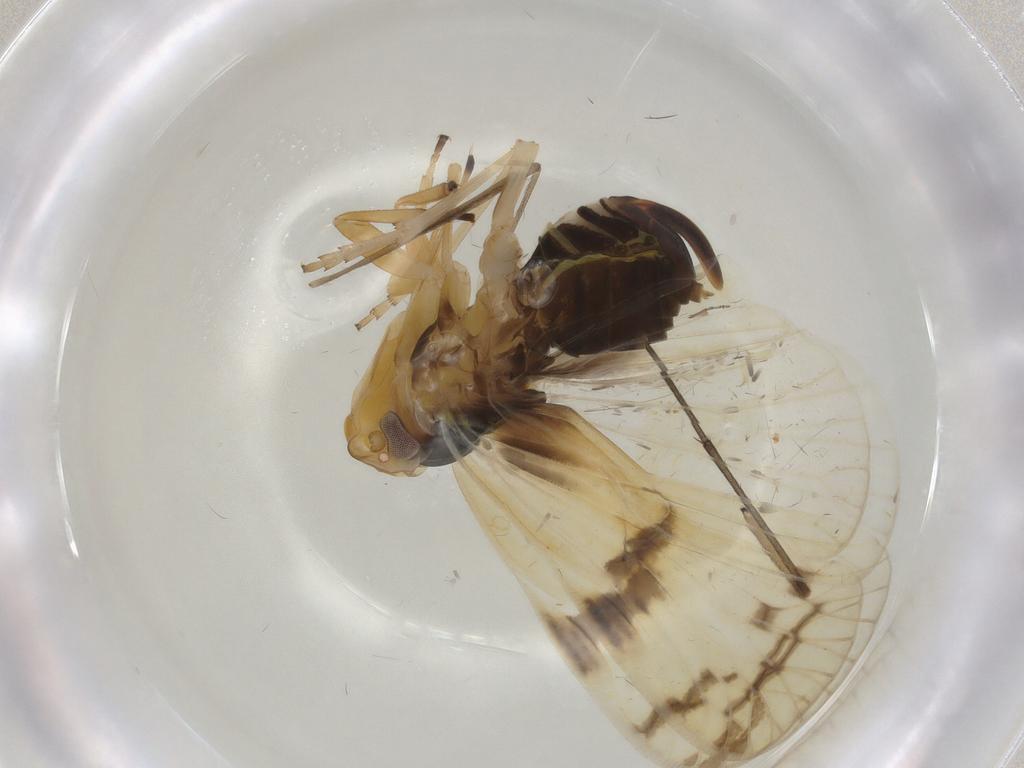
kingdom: Animalia
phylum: Arthropoda
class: Insecta
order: Hemiptera
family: Cixiidae
